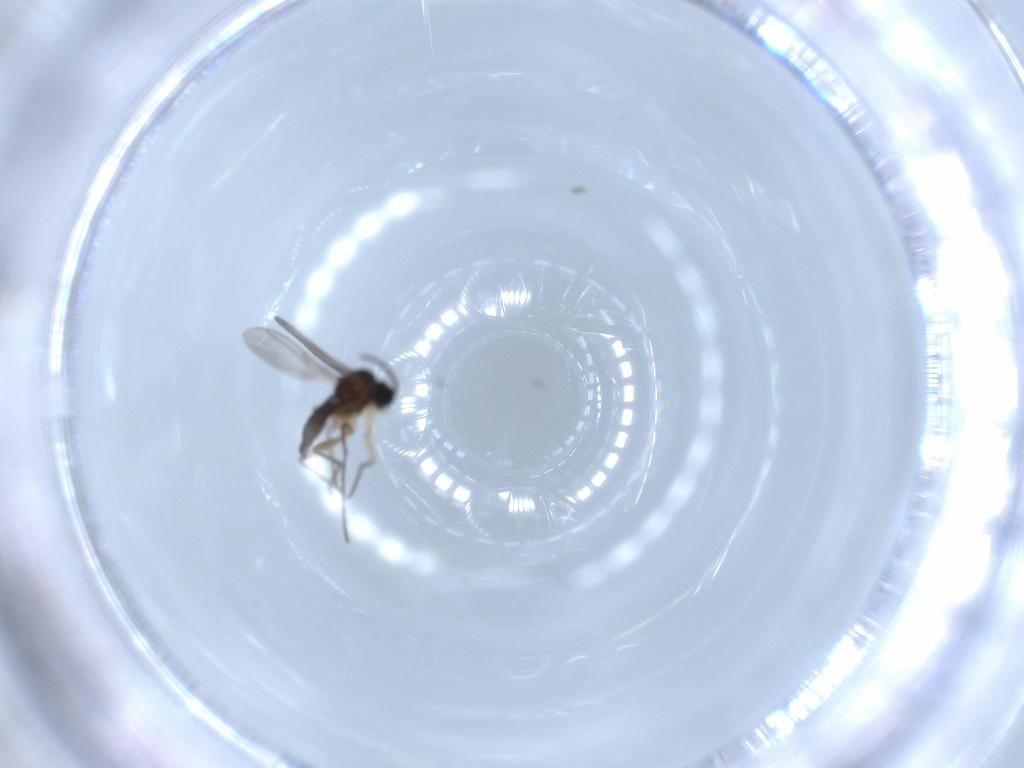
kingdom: Animalia
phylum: Arthropoda
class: Insecta
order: Diptera
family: Sciaridae
